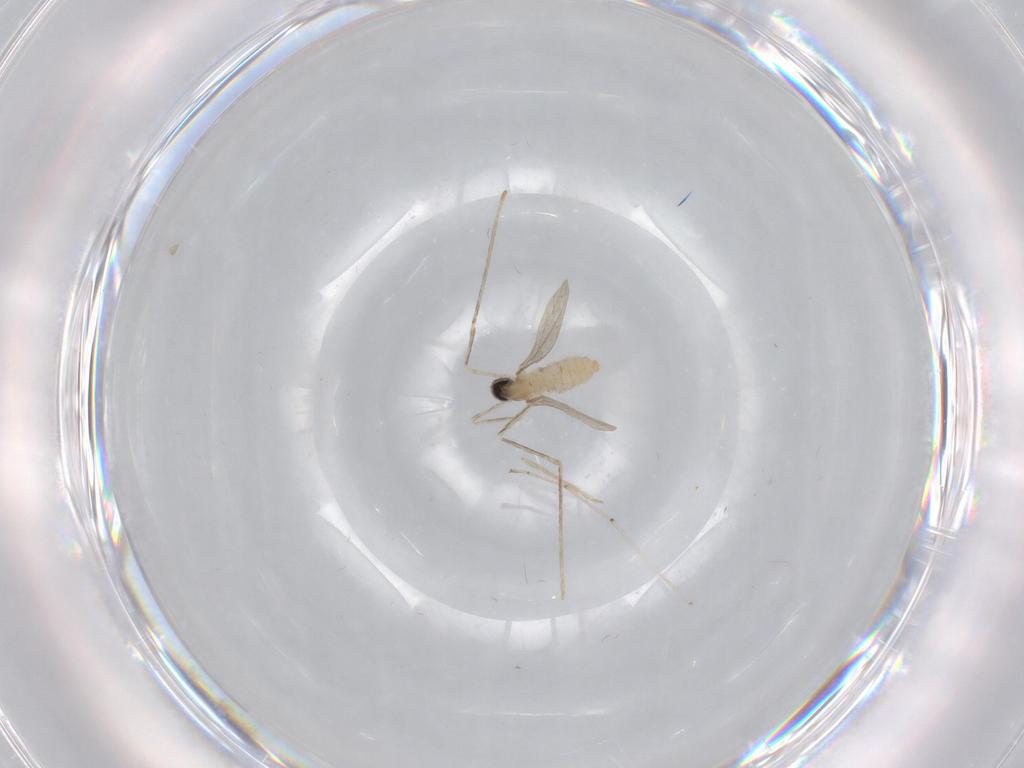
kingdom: Animalia
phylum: Arthropoda
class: Insecta
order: Diptera
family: Cecidomyiidae
